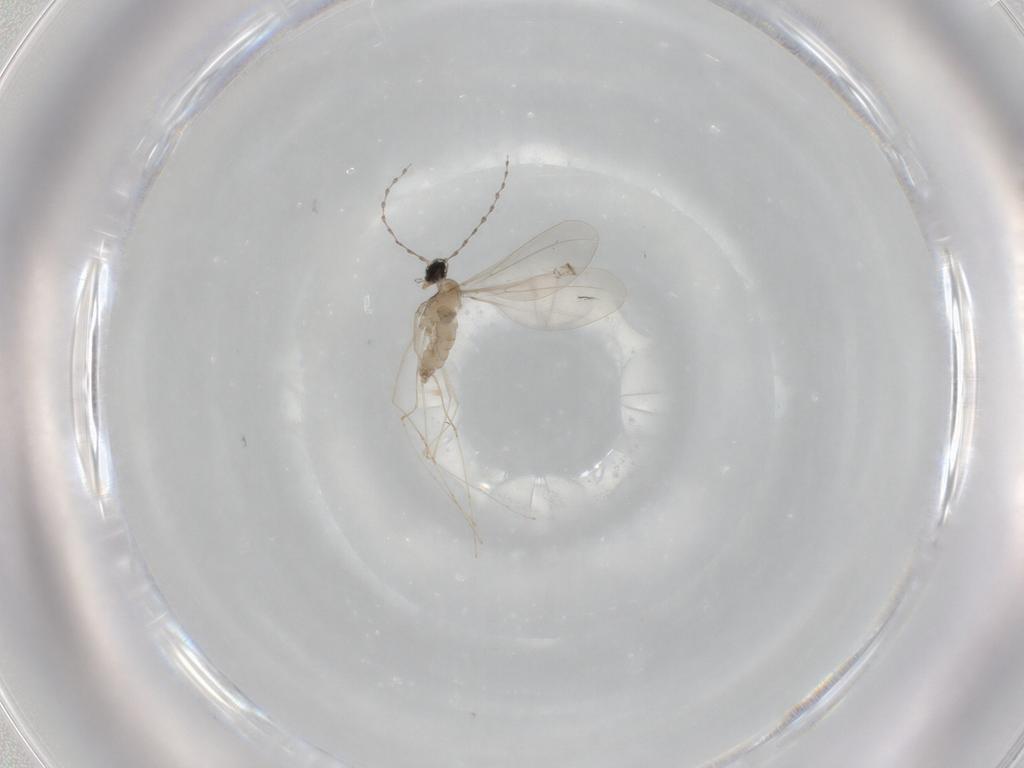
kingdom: Animalia
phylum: Arthropoda
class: Insecta
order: Diptera
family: Cecidomyiidae
